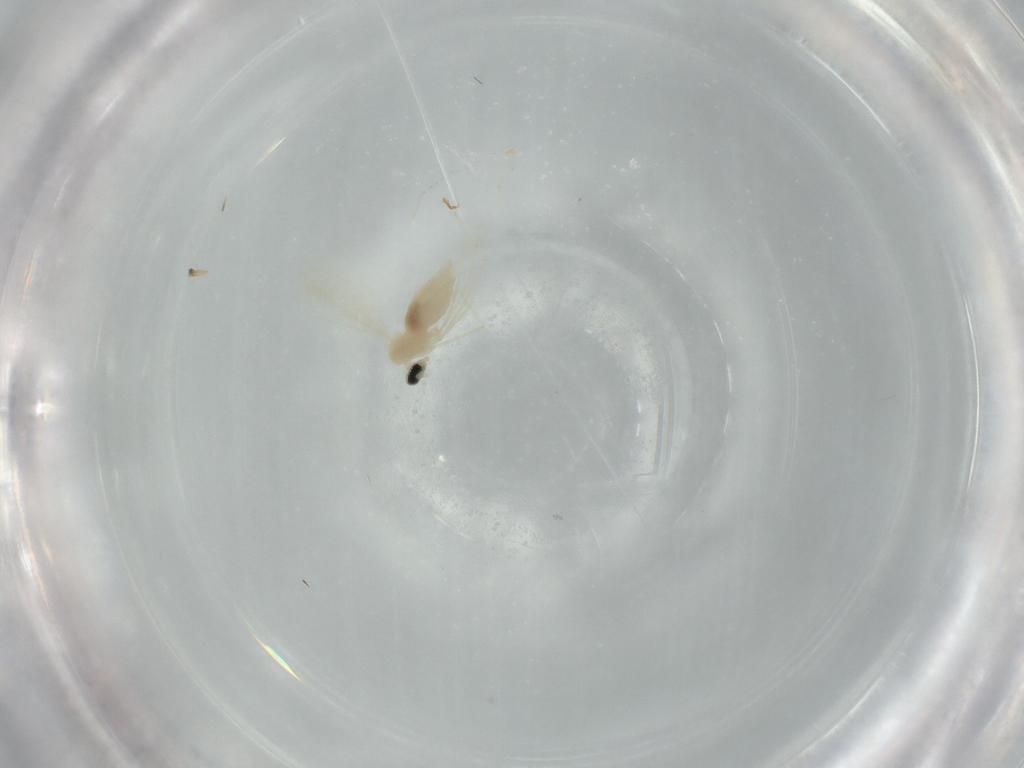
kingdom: Animalia
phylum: Arthropoda
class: Insecta
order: Diptera
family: Cecidomyiidae
